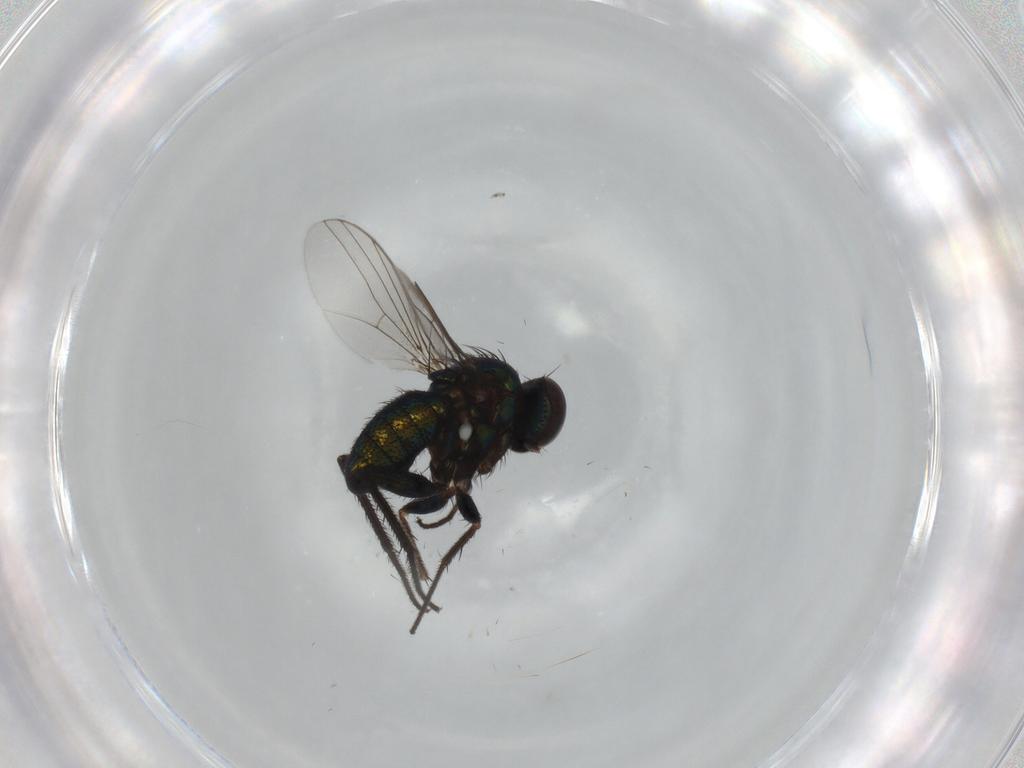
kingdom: Animalia
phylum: Arthropoda
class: Insecta
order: Diptera
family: Dolichopodidae
